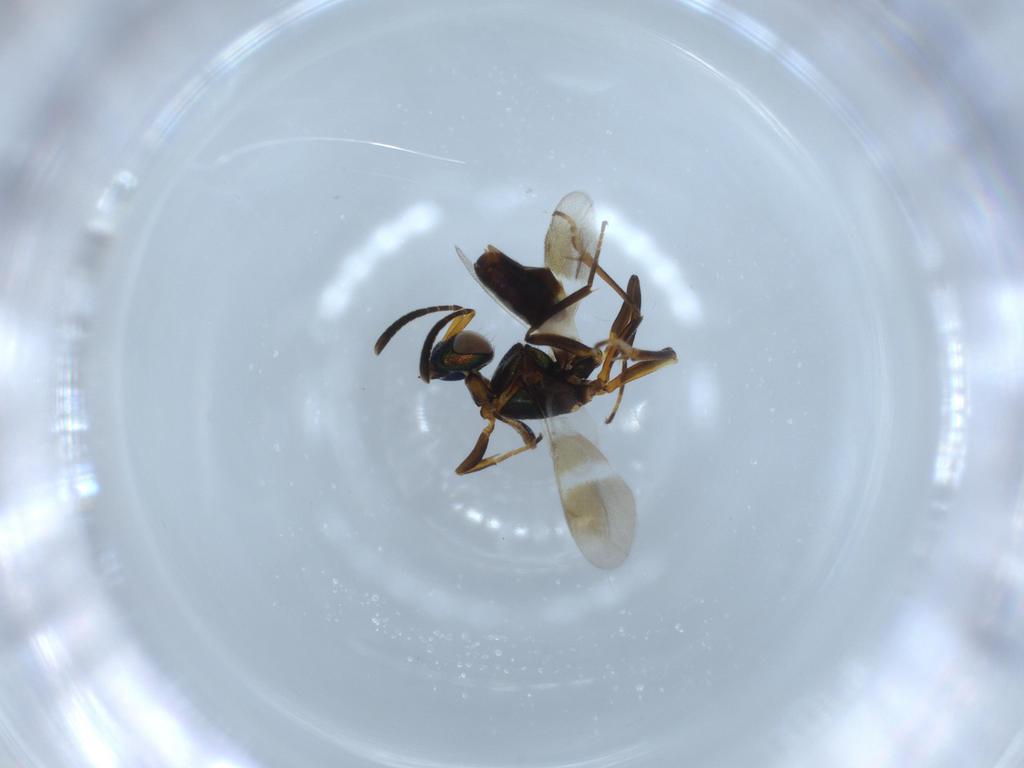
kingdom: Animalia
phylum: Arthropoda
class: Insecta
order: Hymenoptera
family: Eupelmidae
